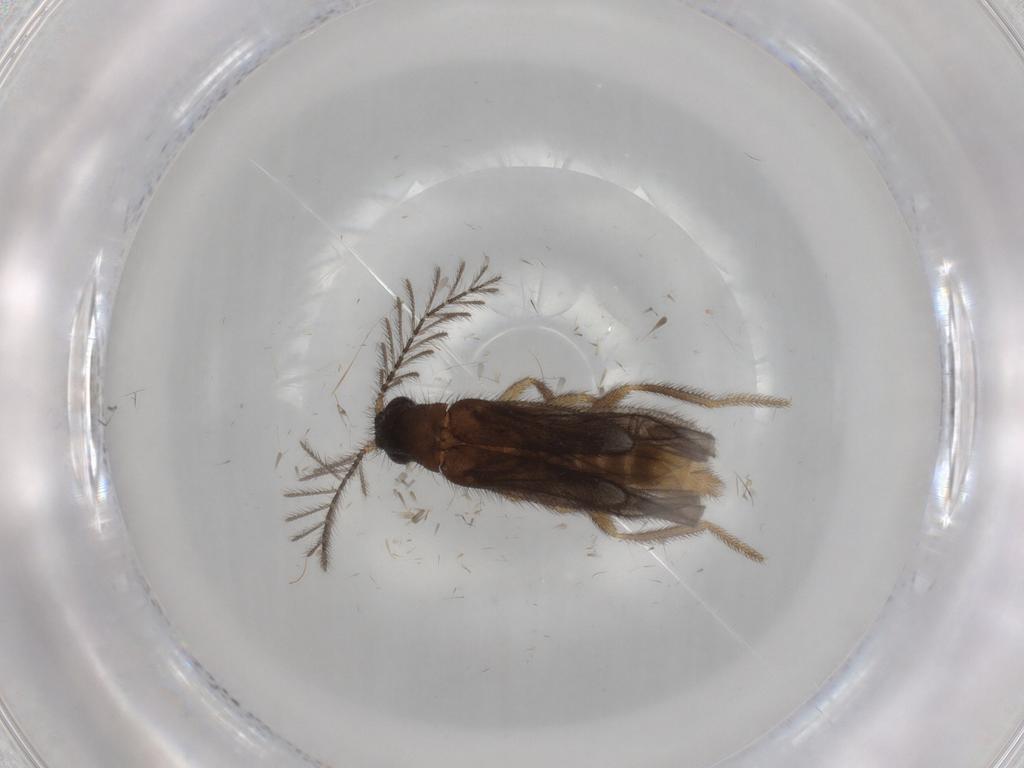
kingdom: Animalia
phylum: Arthropoda
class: Insecta
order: Coleoptera
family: Chrysomelidae
